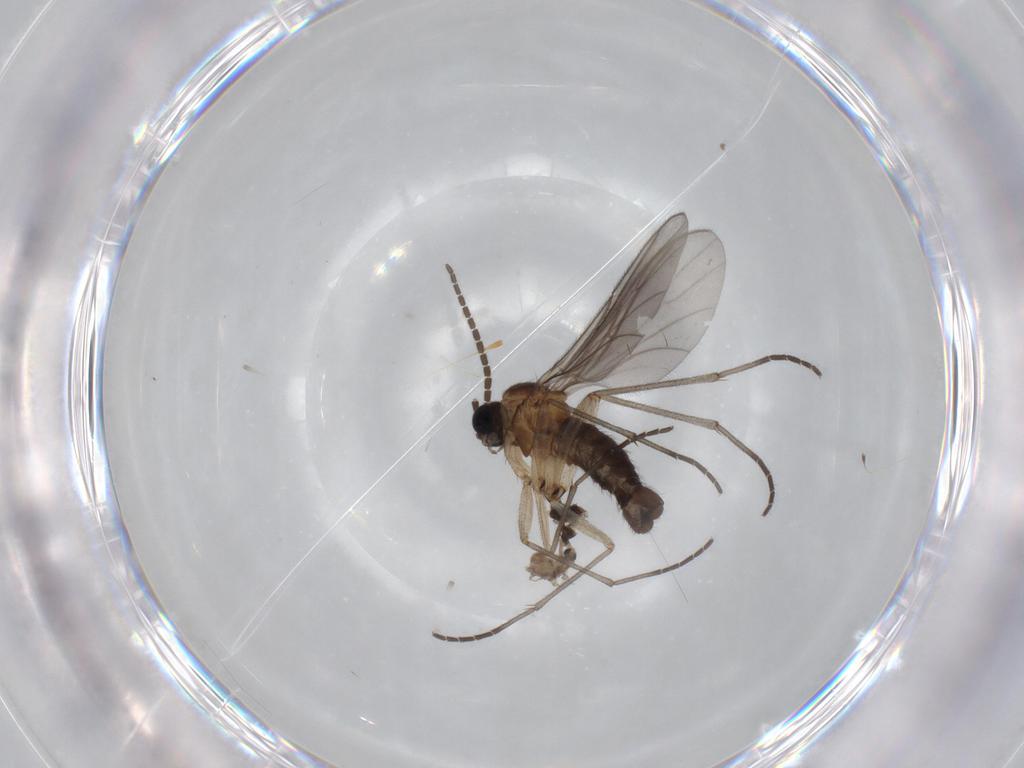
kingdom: Animalia
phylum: Arthropoda
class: Insecta
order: Diptera
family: Cecidomyiidae
